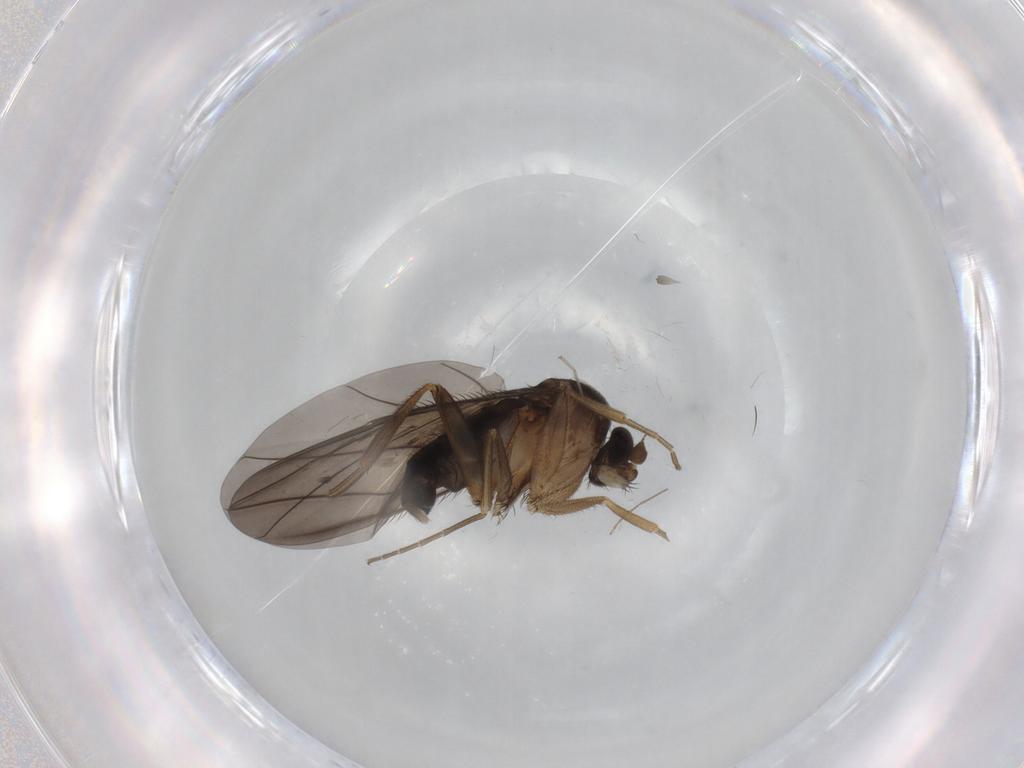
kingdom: Animalia
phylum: Arthropoda
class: Insecta
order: Diptera
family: Phoridae
